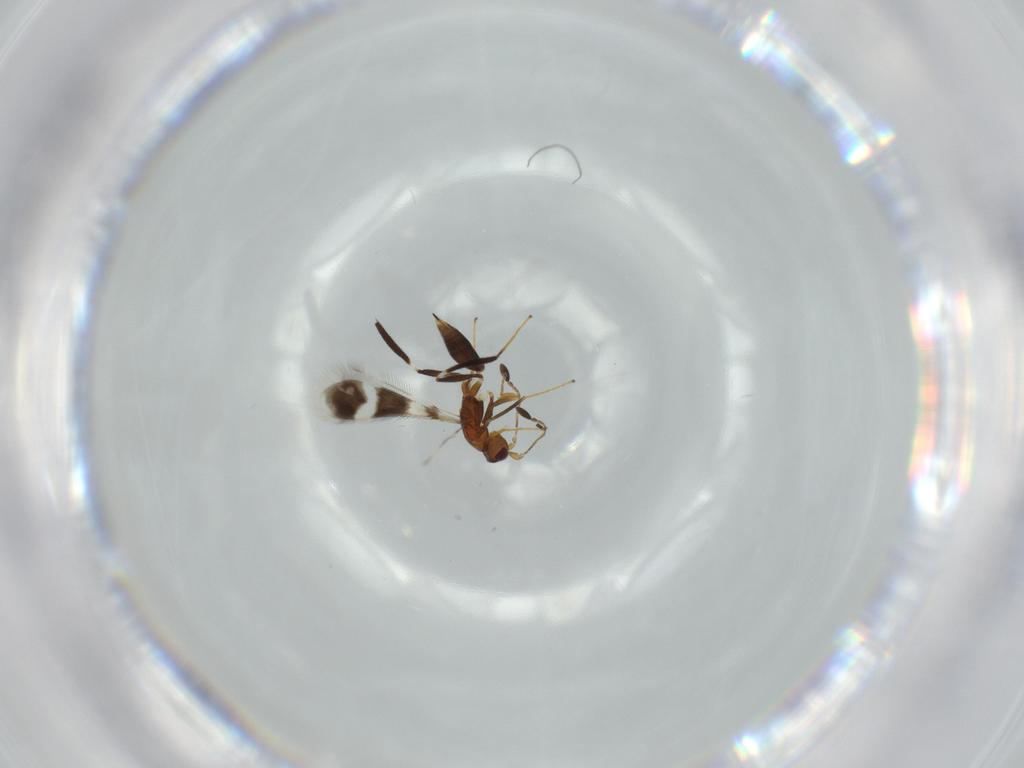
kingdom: Animalia
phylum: Arthropoda
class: Insecta
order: Hymenoptera
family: Mymaridae
